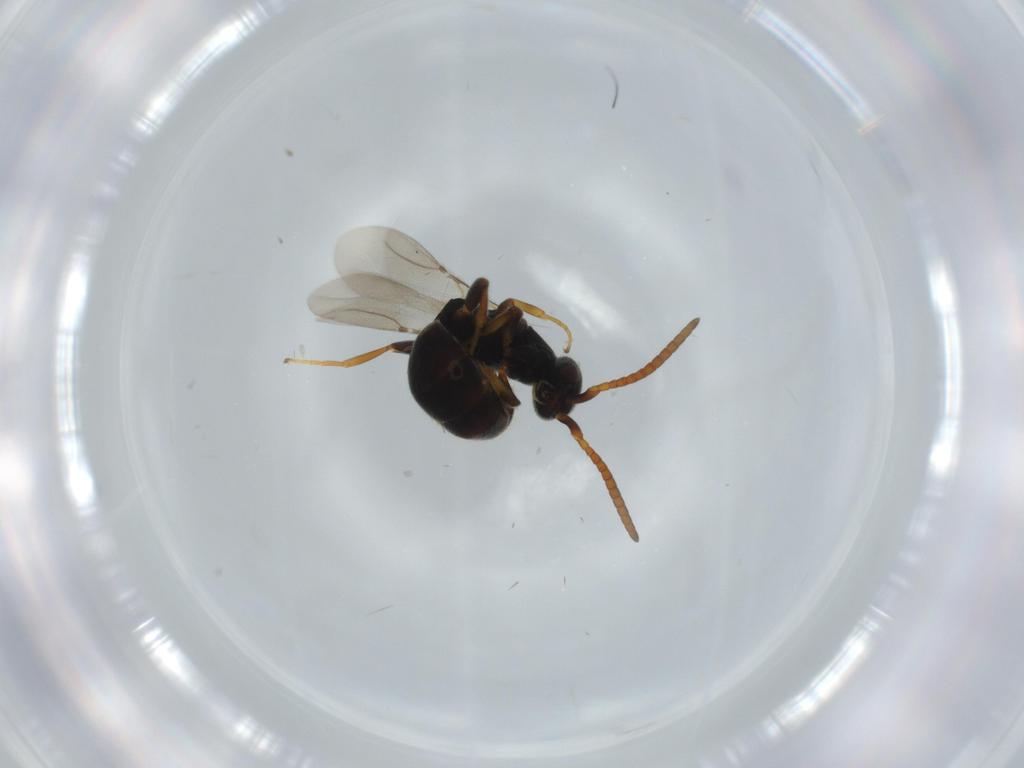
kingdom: Animalia
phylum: Arthropoda
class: Insecta
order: Hymenoptera
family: Bethylidae
